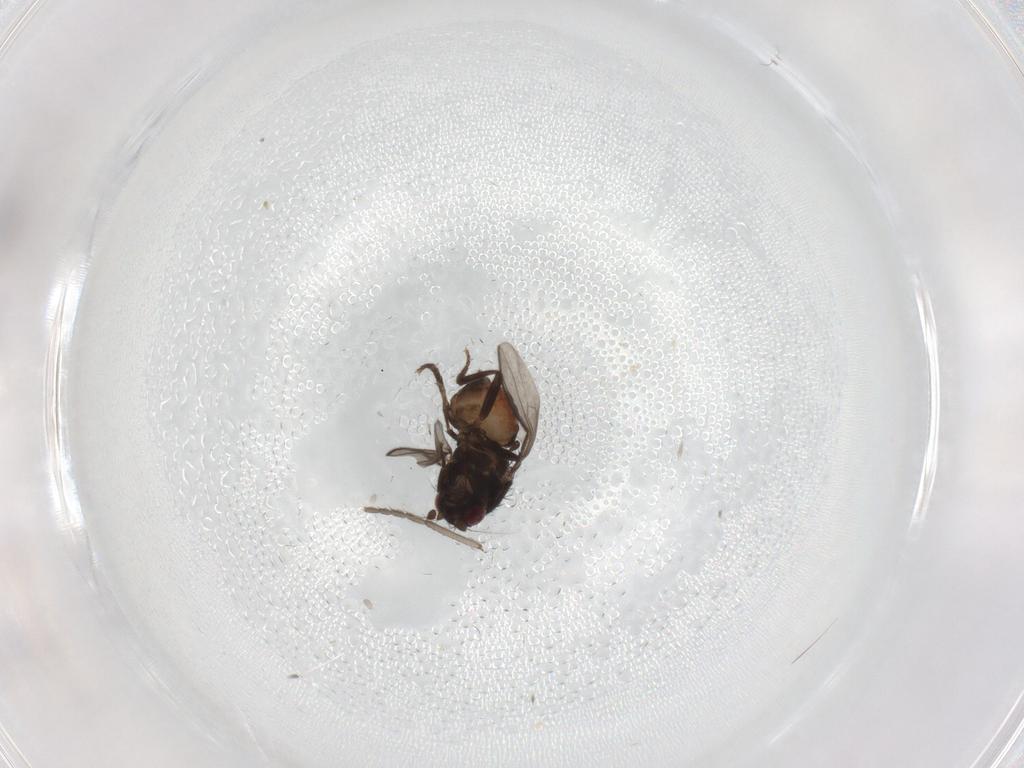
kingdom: Animalia
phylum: Arthropoda
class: Insecta
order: Diptera
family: Sphaeroceridae
